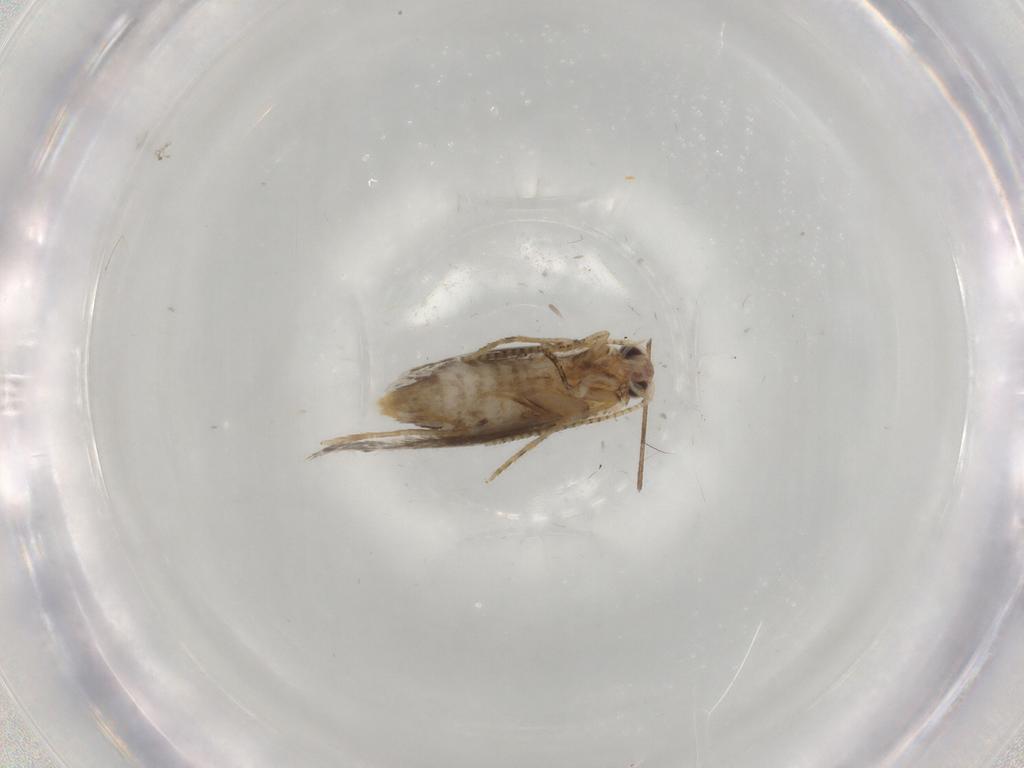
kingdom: Animalia
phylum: Arthropoda
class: Insecta
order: Lepidoptera
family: Tineidae
